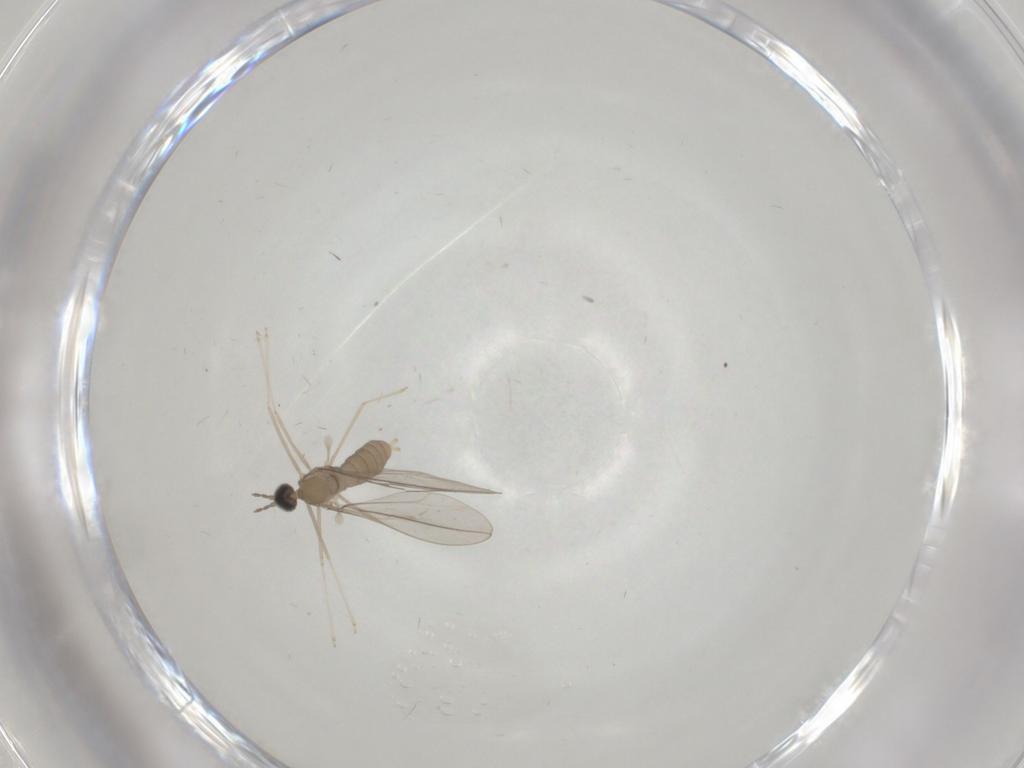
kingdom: Animalia
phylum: Arthropoda
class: Insecta
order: Diptera
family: Cecidomyiidae
